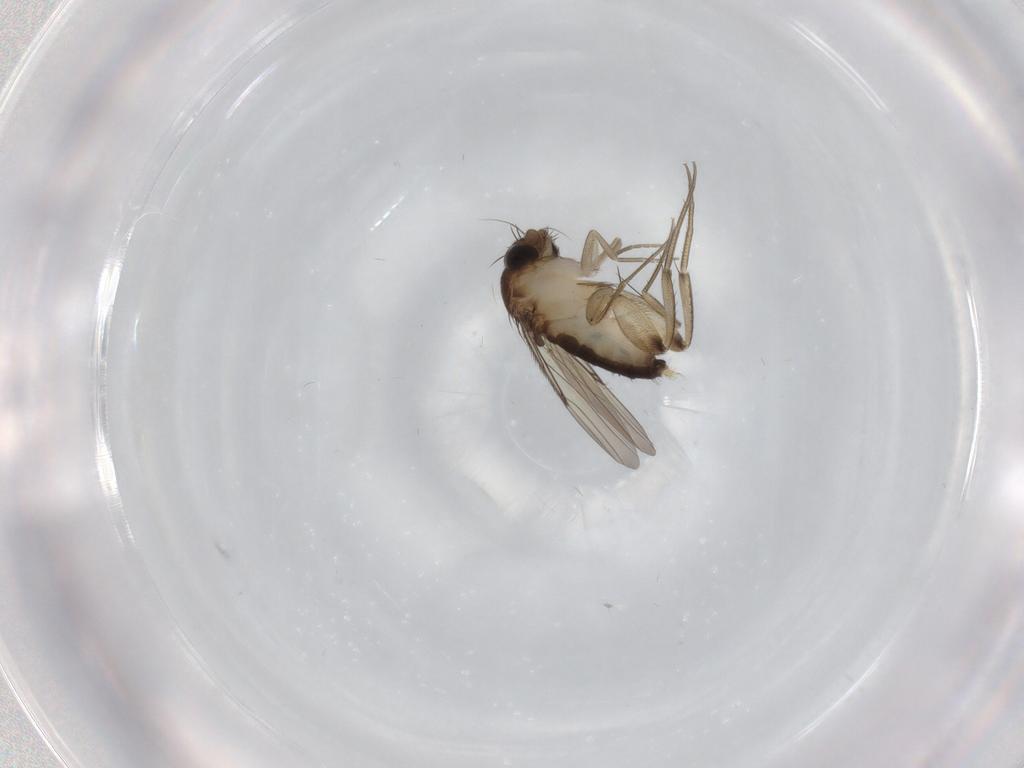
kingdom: Animalia
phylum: Arthropoda
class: Insecta
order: Diptera
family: Phoridae
